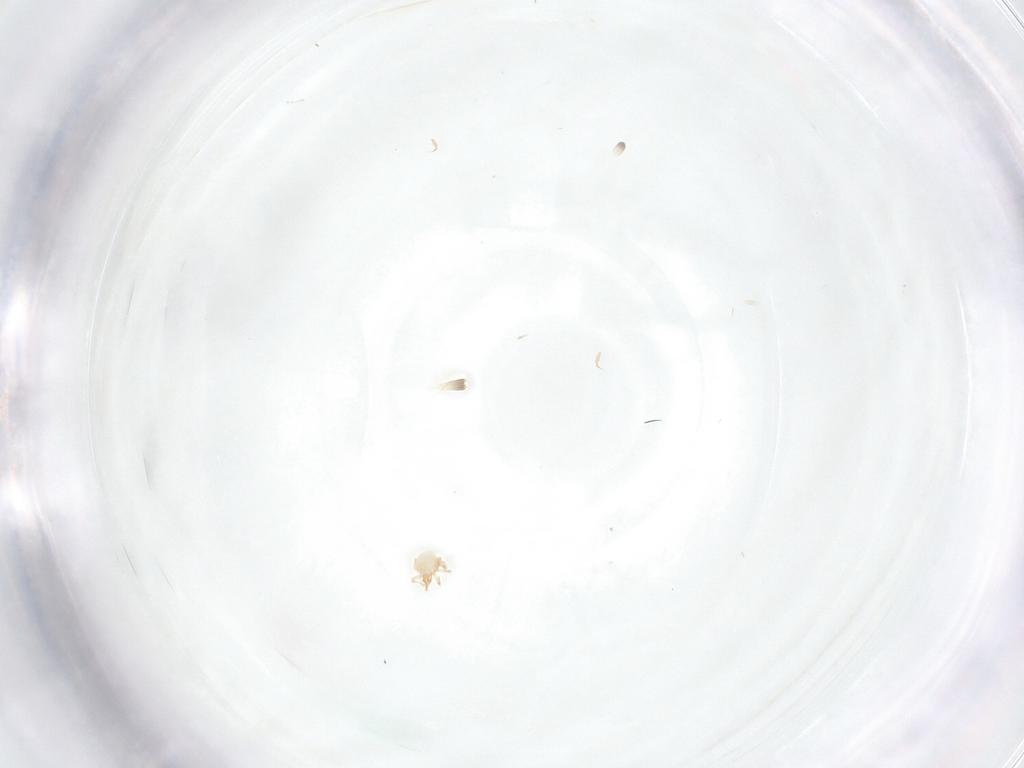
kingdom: Animalia
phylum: Arthropoda
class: Arachnida
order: Trombidiformes
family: Cunaxidae
